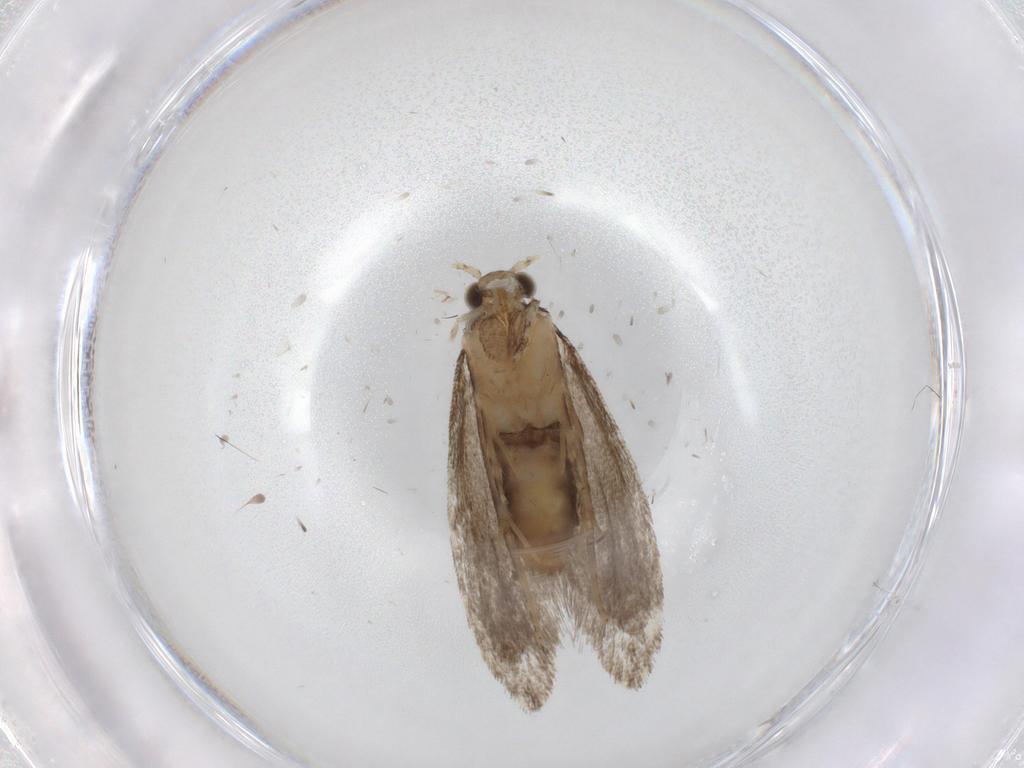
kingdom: Animalia
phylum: Arthropoda
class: Insecta
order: Lepidoptera
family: Tineidae
